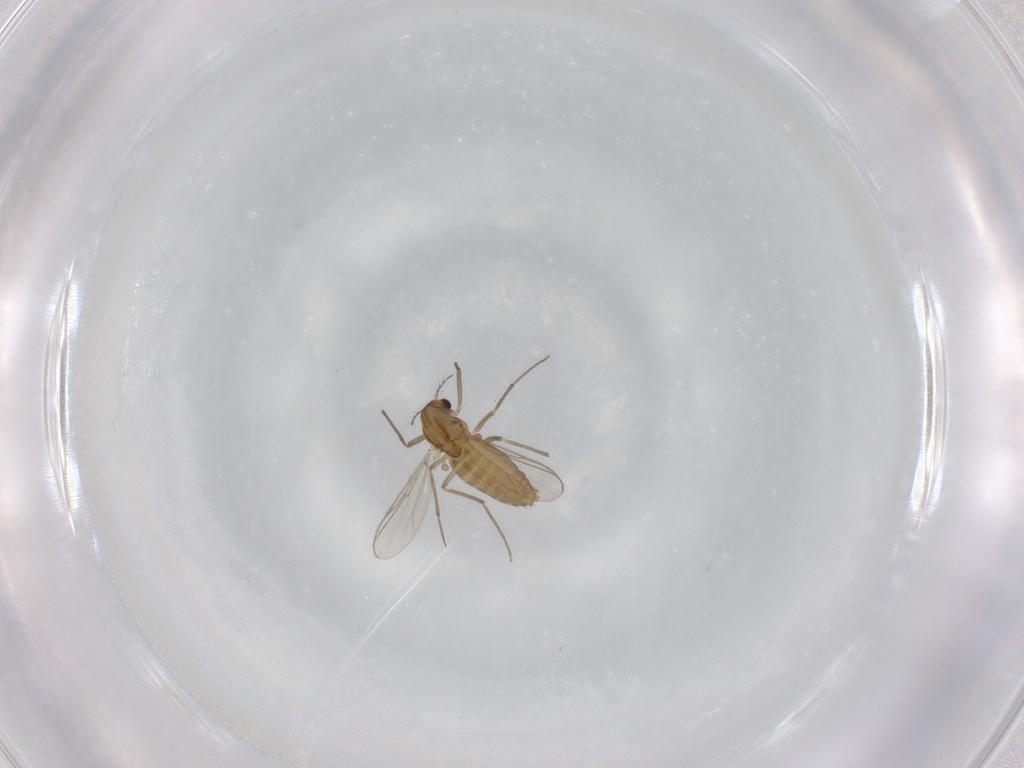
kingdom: Animalia
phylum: Arthropoda
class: Insecta
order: Diptera
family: Chironomidae
